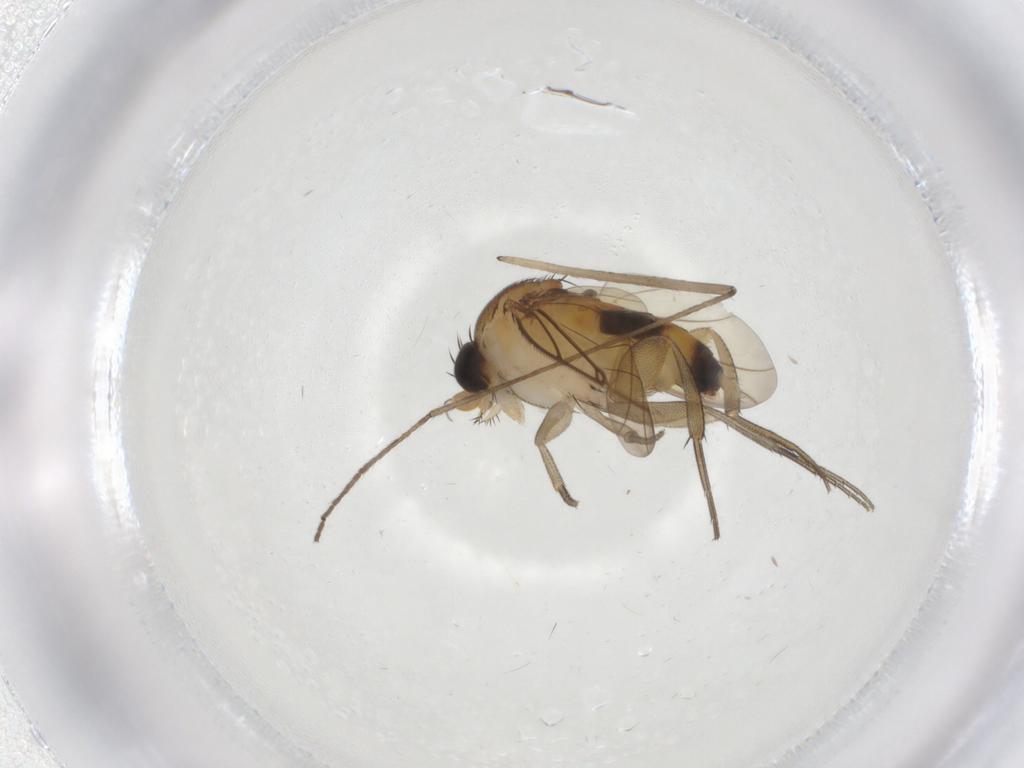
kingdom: Animalia
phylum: Arthropoda
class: Insecta
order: Diptera
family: Phoridae
